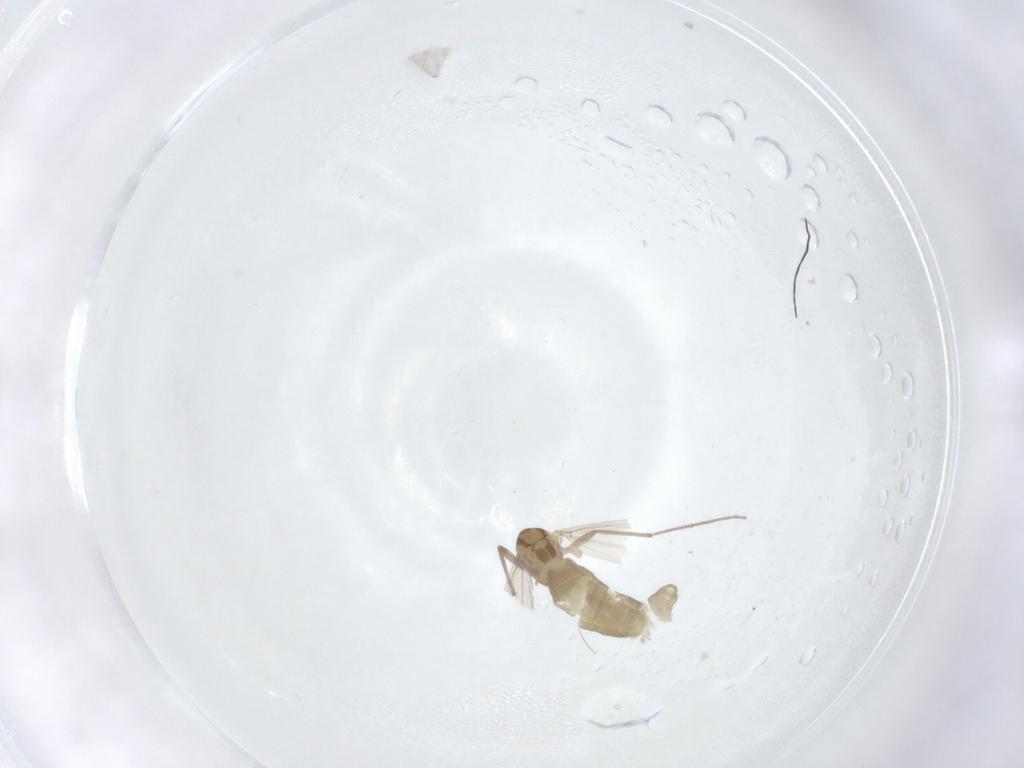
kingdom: Animalia
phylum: Arthropoda
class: Insecta
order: Diptera
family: Chironomidae
